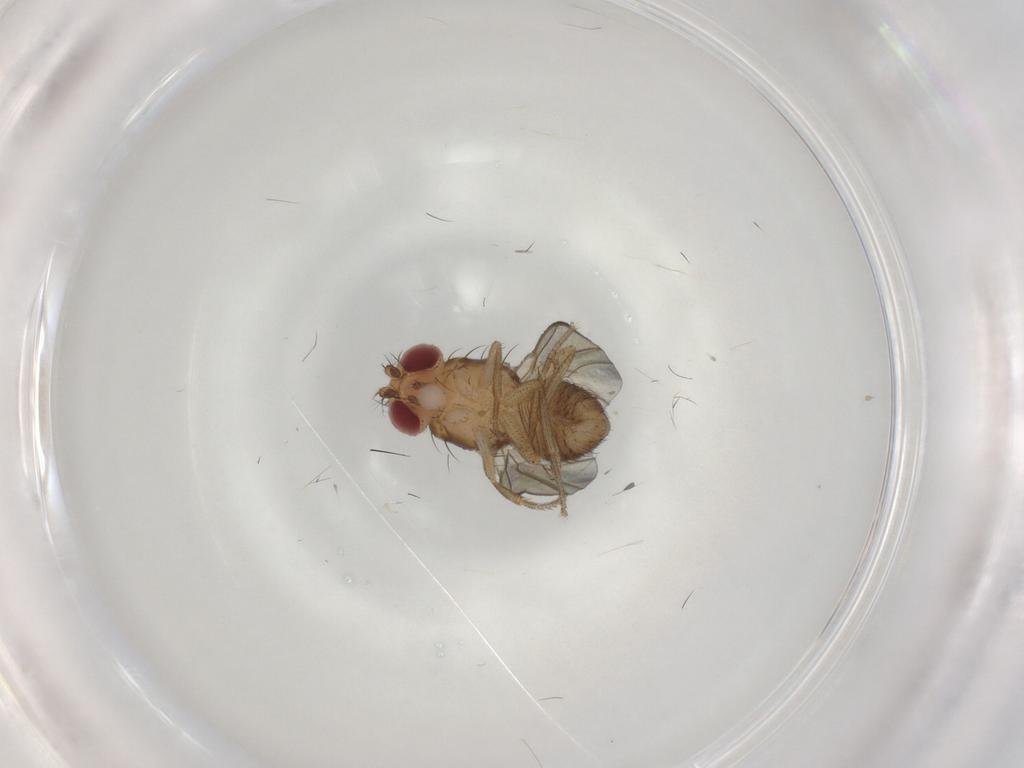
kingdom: Animalia
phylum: Arthropoda
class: Insecta
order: Diptera
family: Drosophilidae
